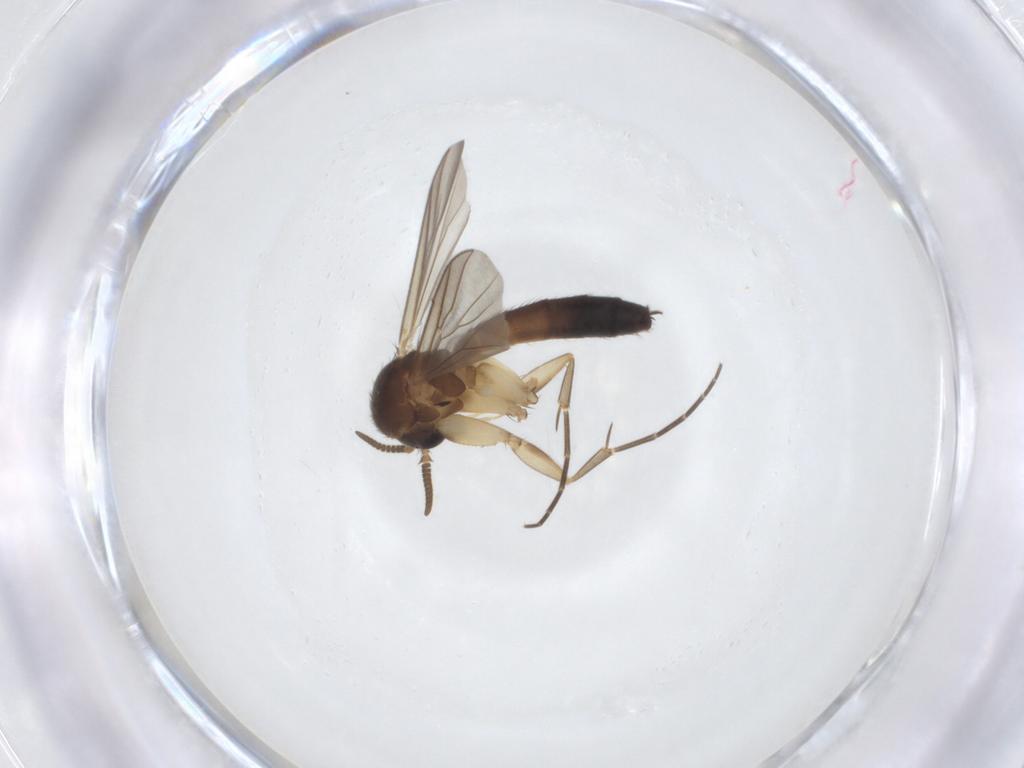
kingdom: Animalia
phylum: Arthropoda
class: Insecta
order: Diptera
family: Mycetophilidae
